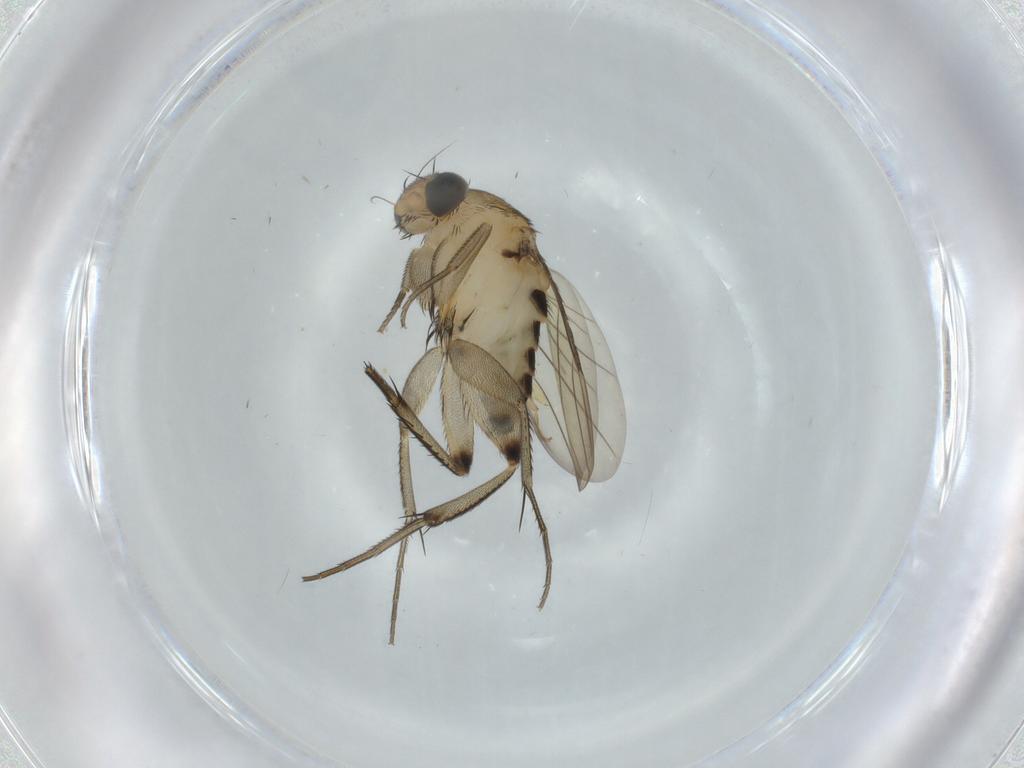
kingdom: Animalia
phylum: Arthropoda
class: Insecta
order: Diptera
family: Phoridae
